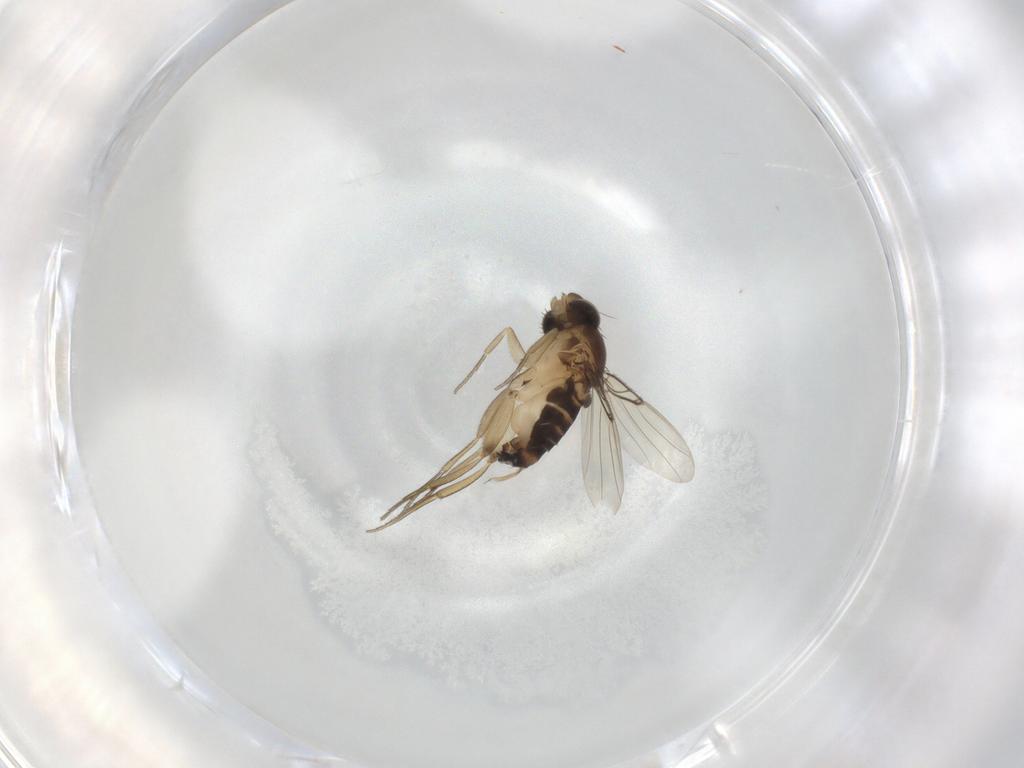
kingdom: Animalia
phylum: Arthropoda
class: Insecta
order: Diptera
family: Phoridae
